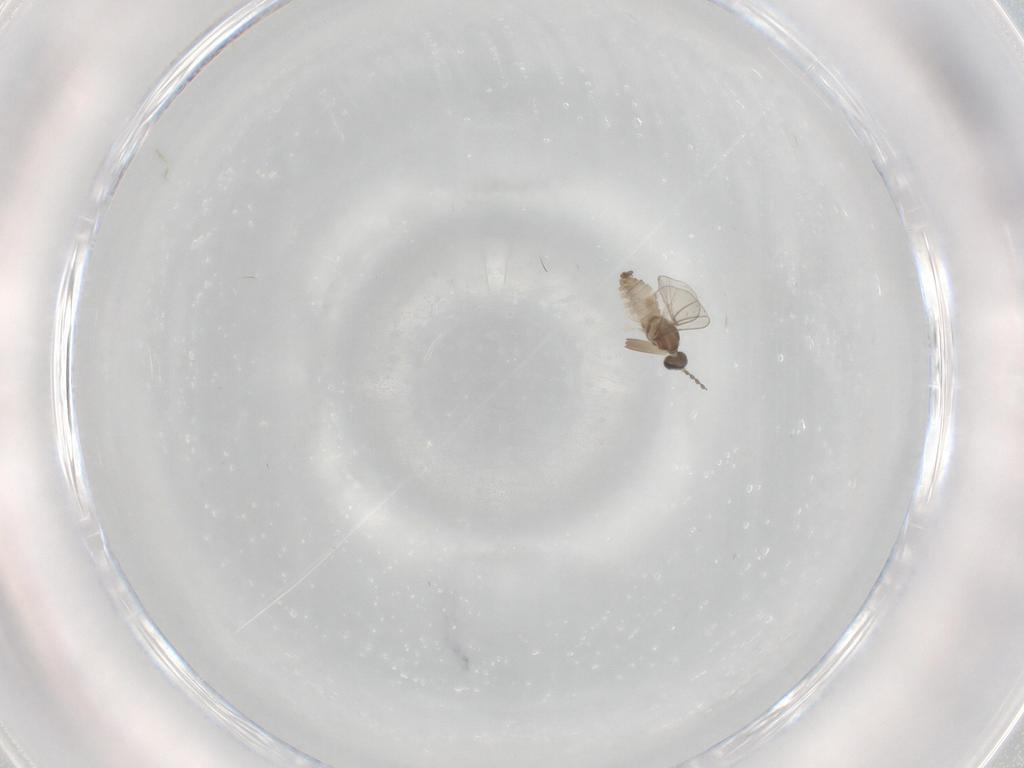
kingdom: Animalia
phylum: Arthropoda
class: Insecta
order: Diptera
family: Cecidomyiidae
